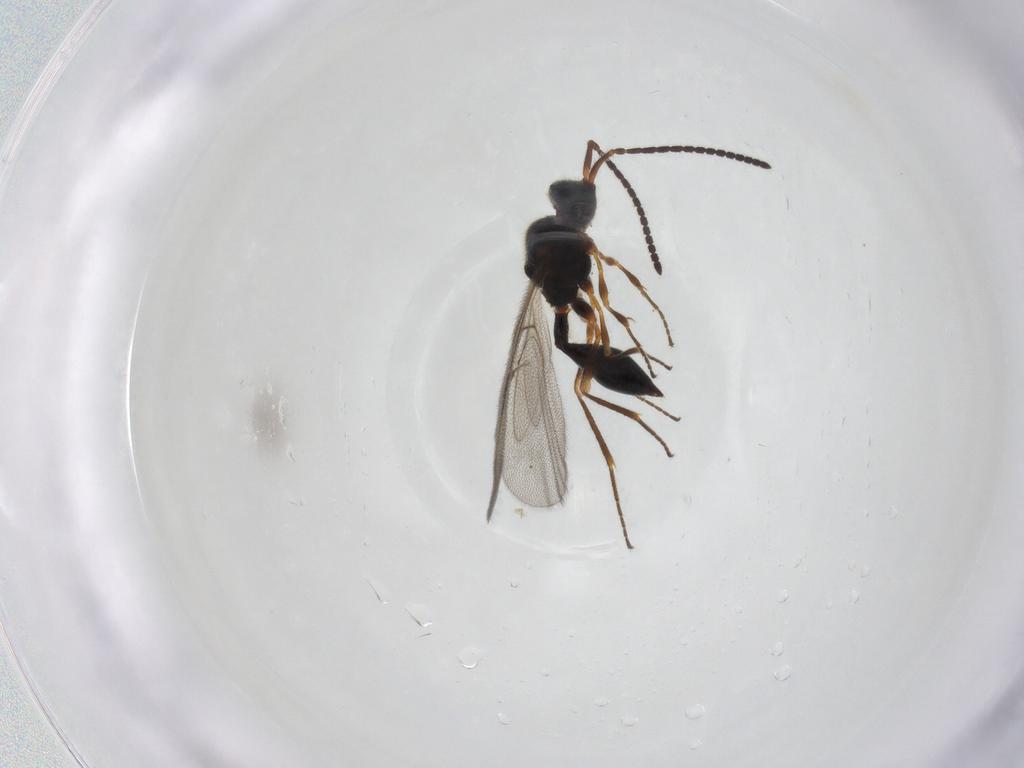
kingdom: Animalia
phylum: Arthropoda
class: Insecta
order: Hymenoptera
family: Diapriidae
